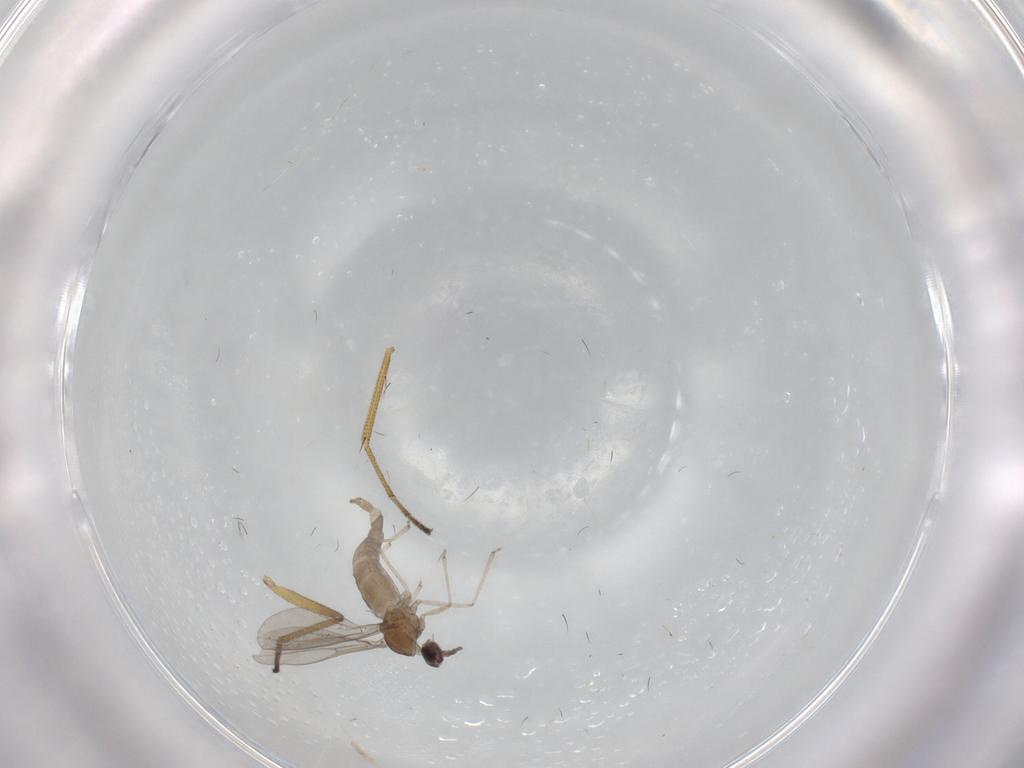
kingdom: Animalia
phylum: Arthropoda
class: Insecta
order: Diptera
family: Cecidomyiidae
